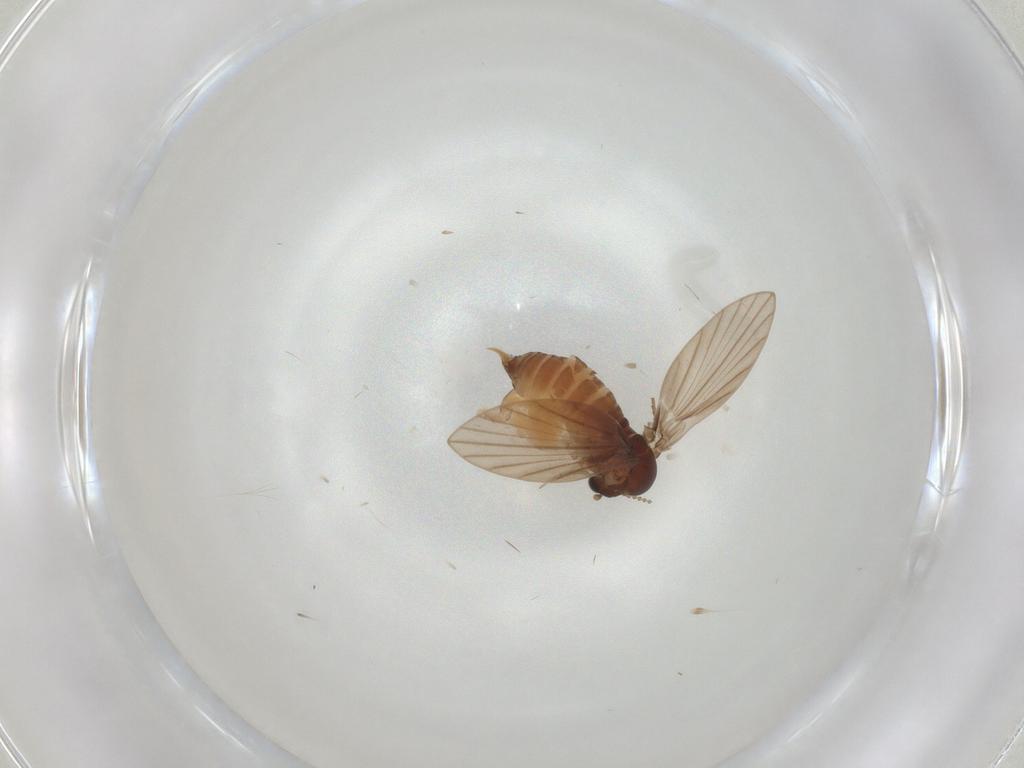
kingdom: Animalia
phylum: Arthropoda
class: Insecta
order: Diptera
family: Psychodidae
